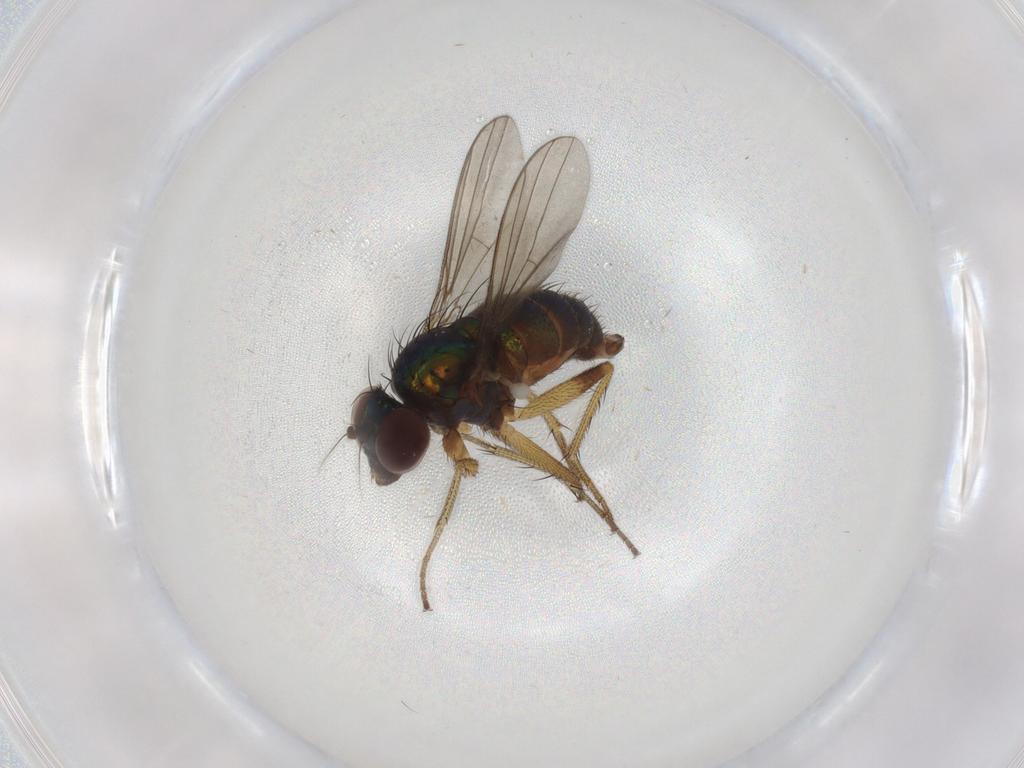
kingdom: Animalia
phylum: Arthropoda
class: Insecta
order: Diptera
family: Dolichopodidae
